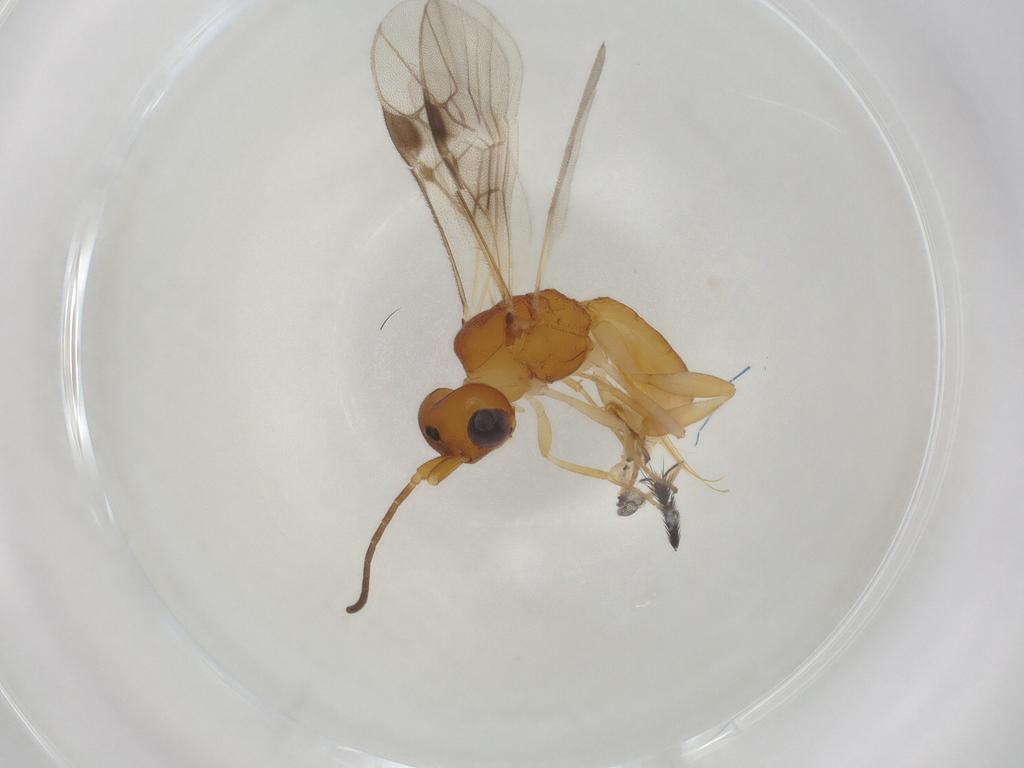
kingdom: Animalia
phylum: Arthropoda
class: Insecta
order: Hymenoptera
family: Braconidae
